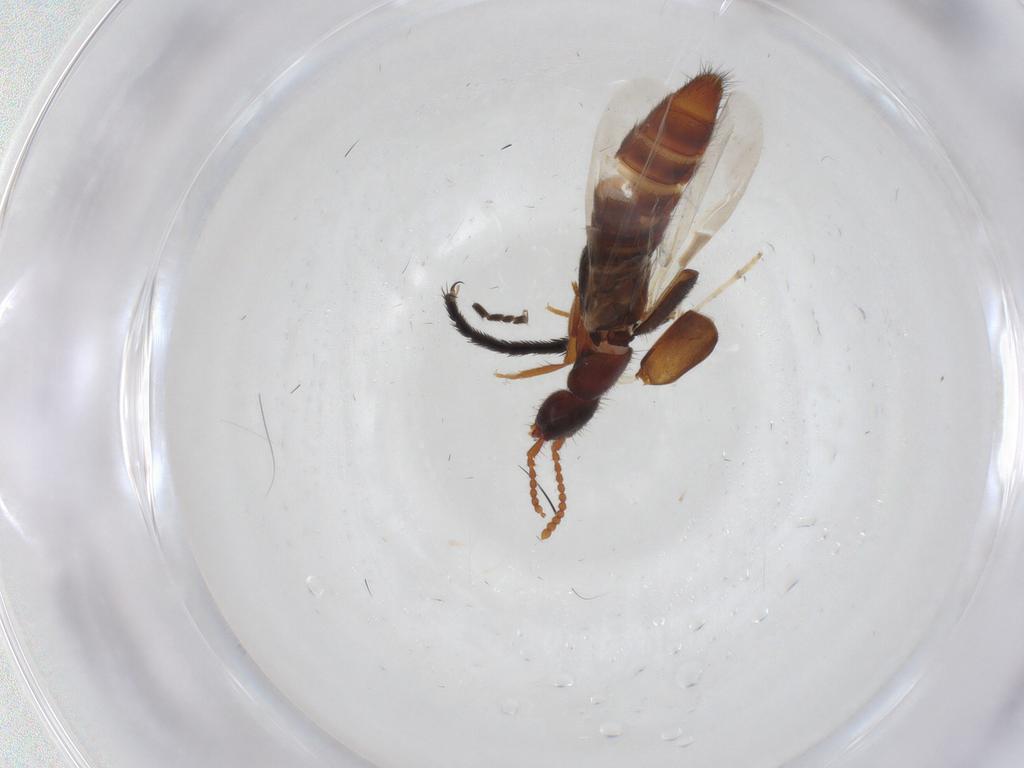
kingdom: Animalia
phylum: Arthropoda
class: Insecta
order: Coleoptera
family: Staphylinidae
